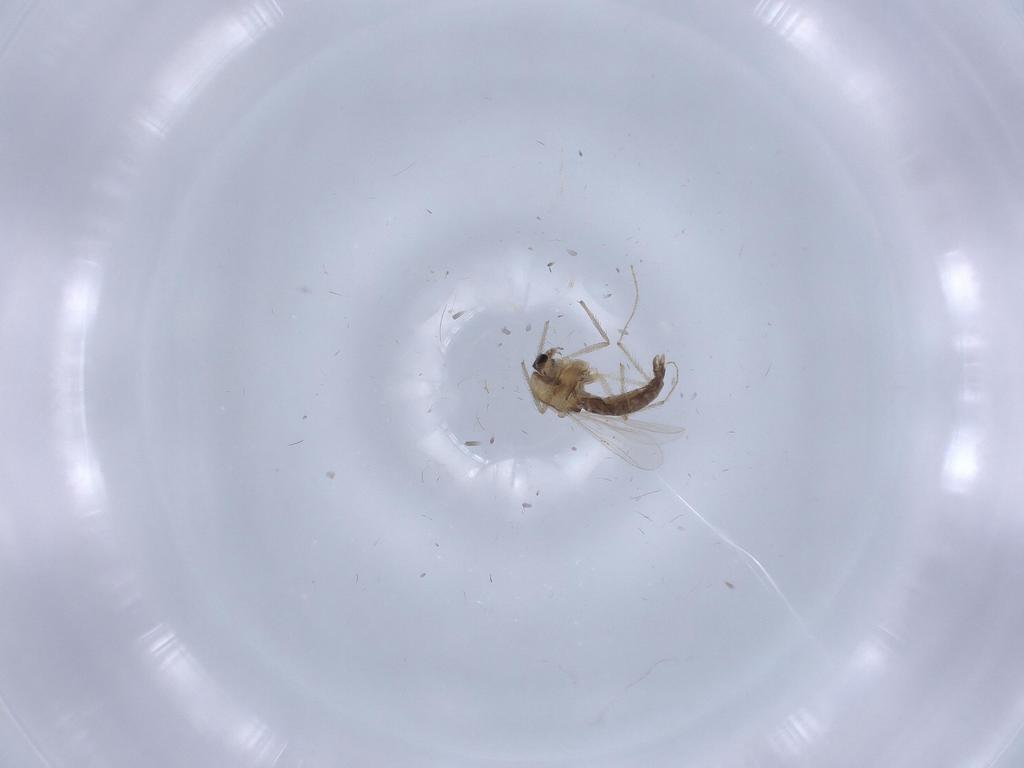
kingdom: Animalia
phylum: Arthropoda
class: Insecta
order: Diptera
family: Chironomidae
